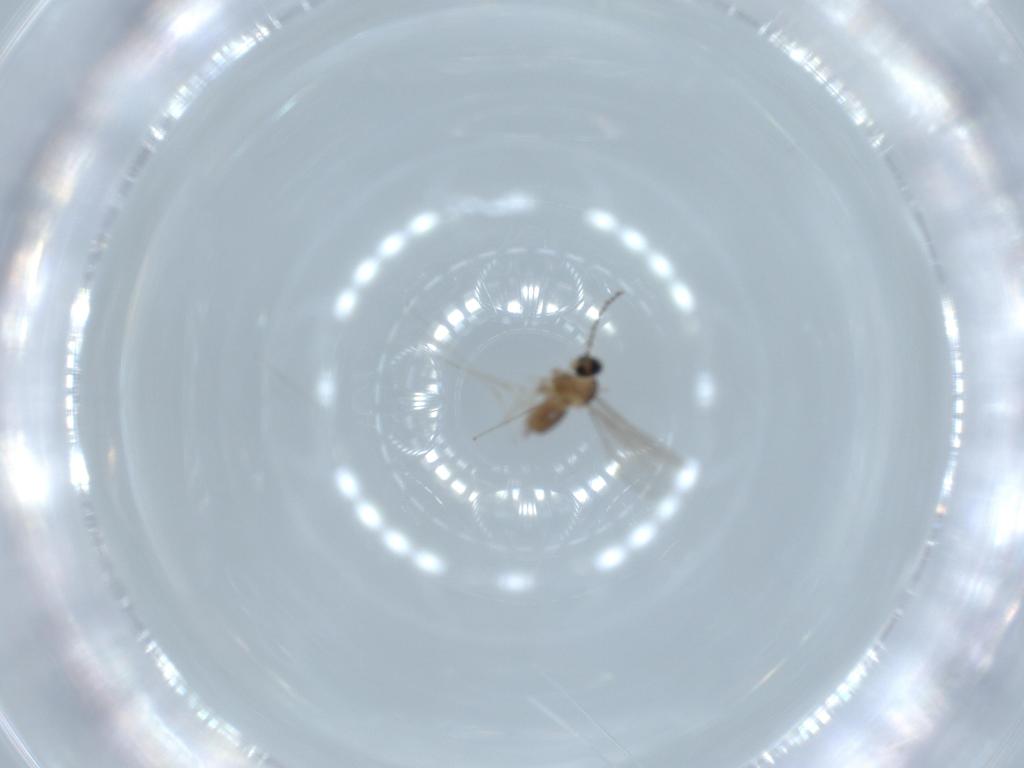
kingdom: Animalia
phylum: Arthropoda
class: Insecta
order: Diptera
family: Cecidomyiidae
